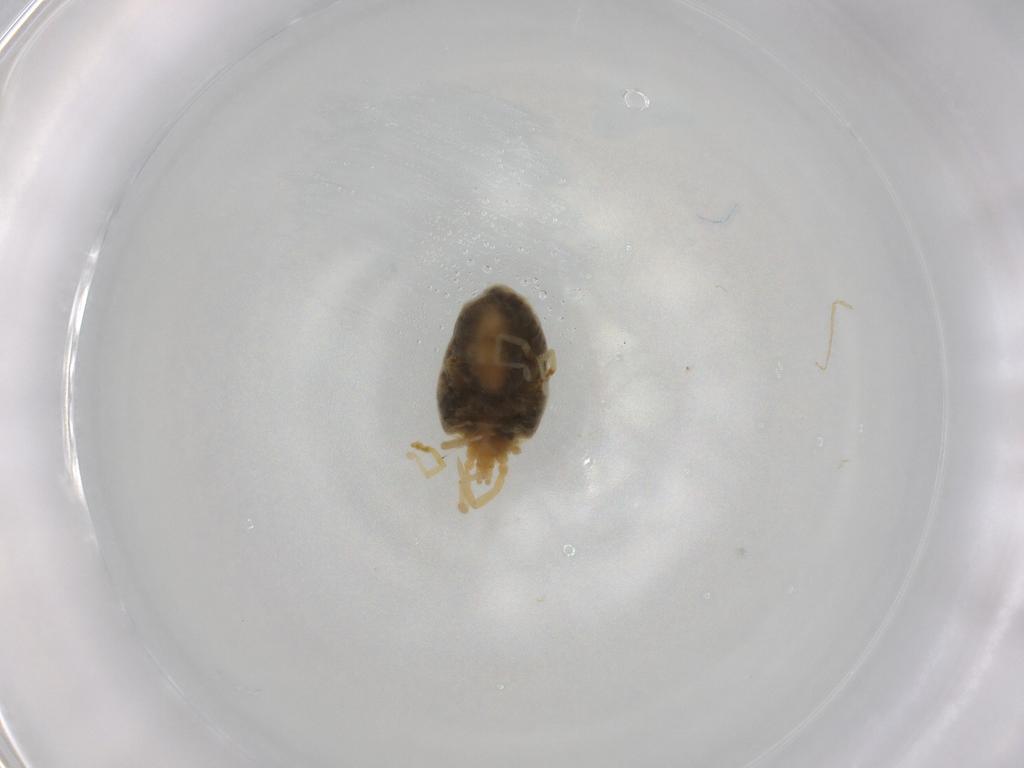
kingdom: Animalia
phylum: Arthropoda
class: Arachnida
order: Trombidiformes
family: Erythraeidae
